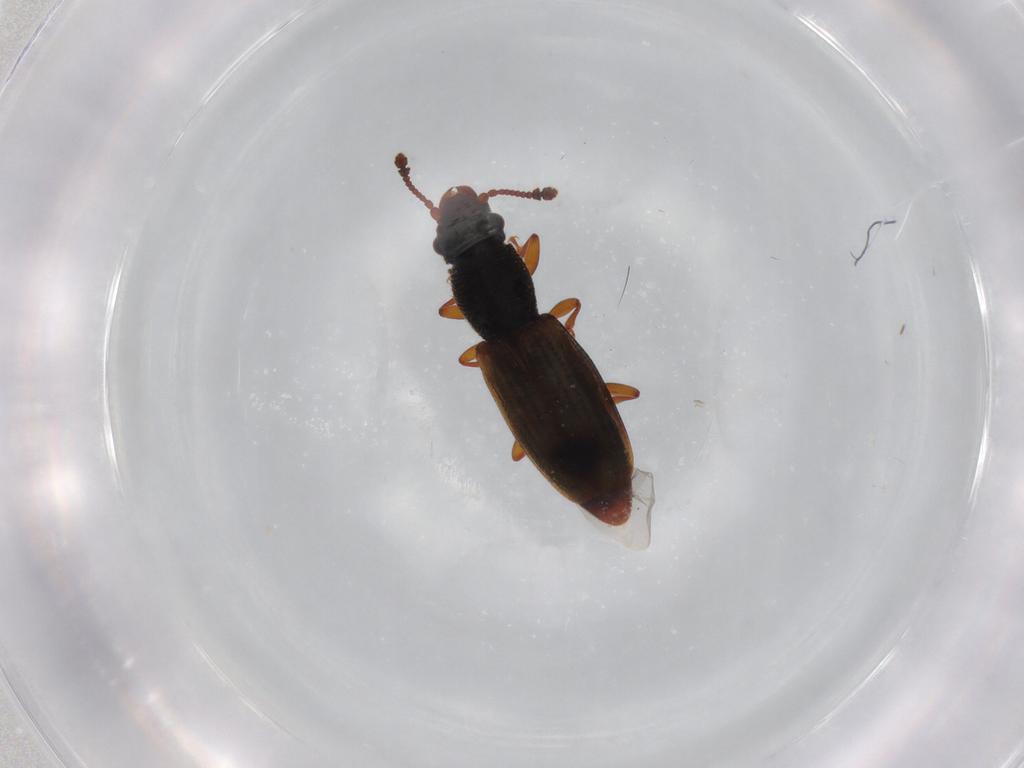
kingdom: Animalia
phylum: Arthropoda
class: Insecta
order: Coleoptera
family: Monotomidae
